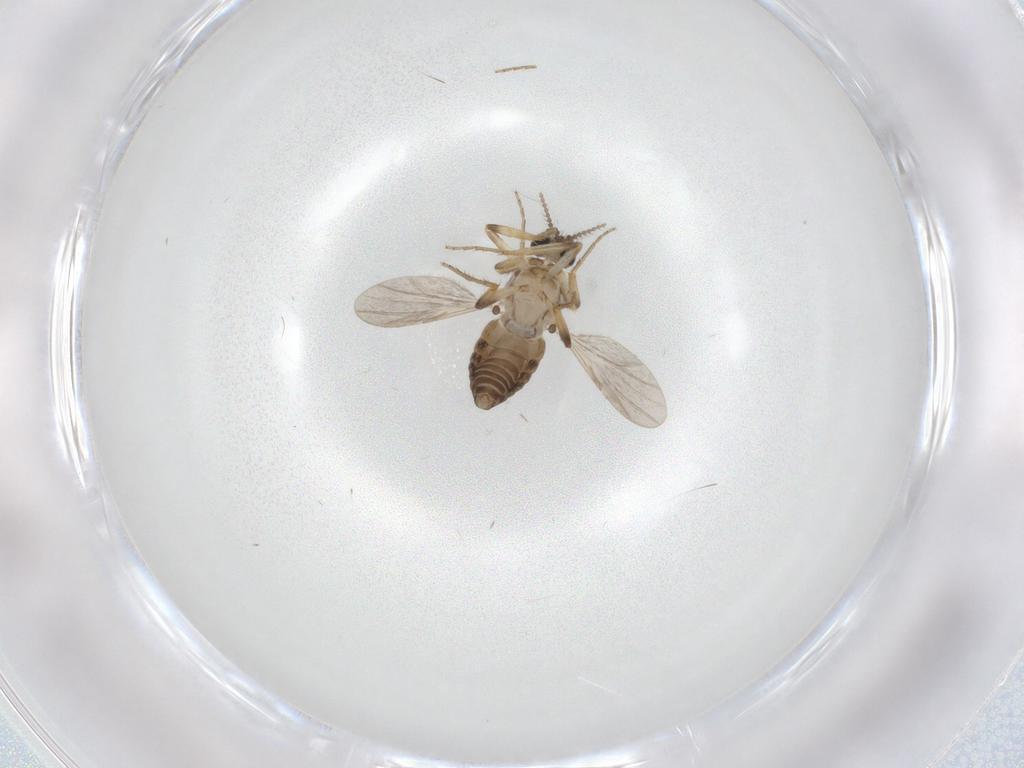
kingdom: Animalia
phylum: Arthropoda
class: Insecta
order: Diptera
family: Ceratopogonidae
